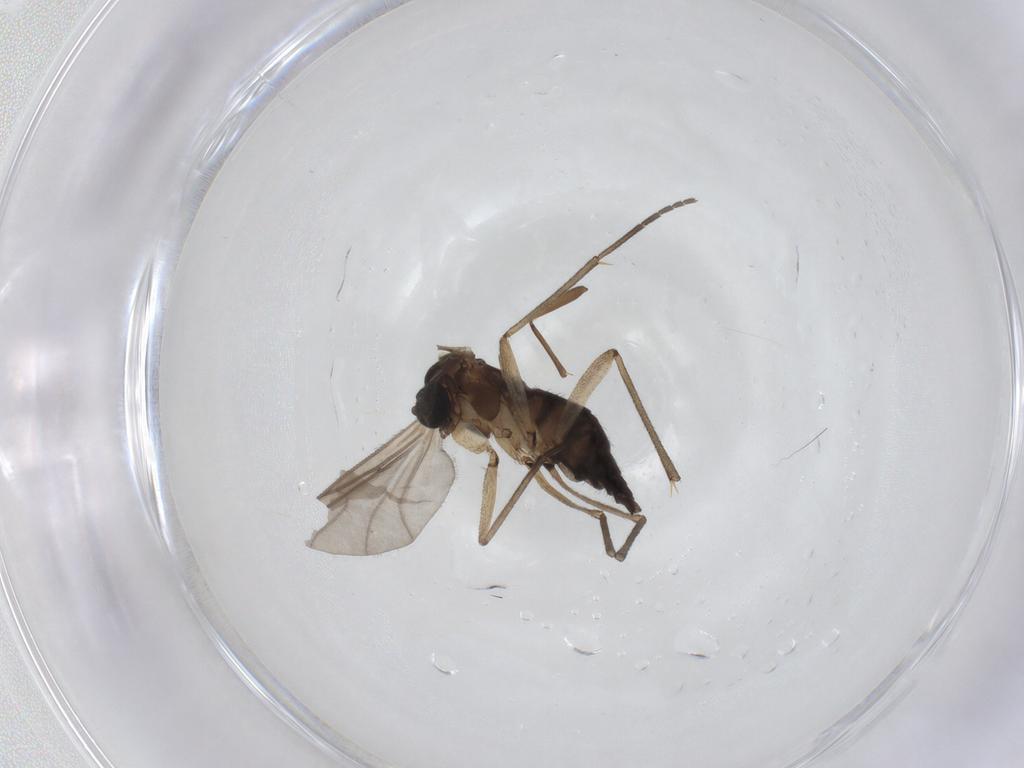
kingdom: Animalia
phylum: Arthropoda
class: Insecta
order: Diptera
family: Sciaridae
